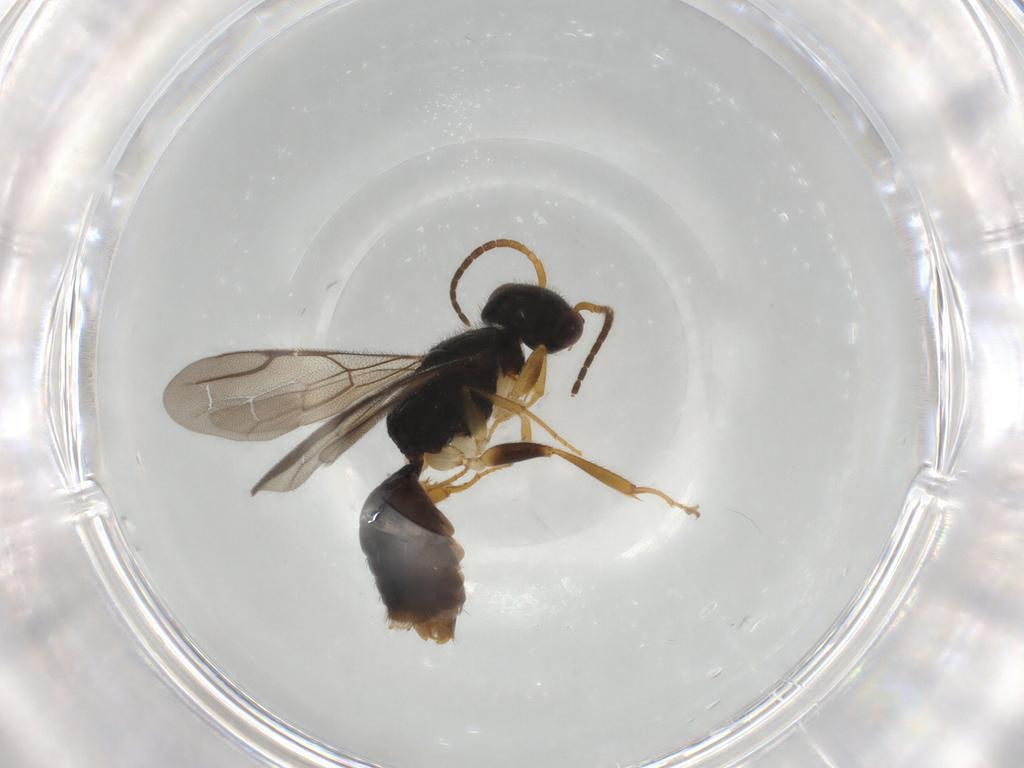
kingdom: Animalia
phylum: Arthropoda
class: Insecta
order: Hymenoptera
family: Bethylidae
